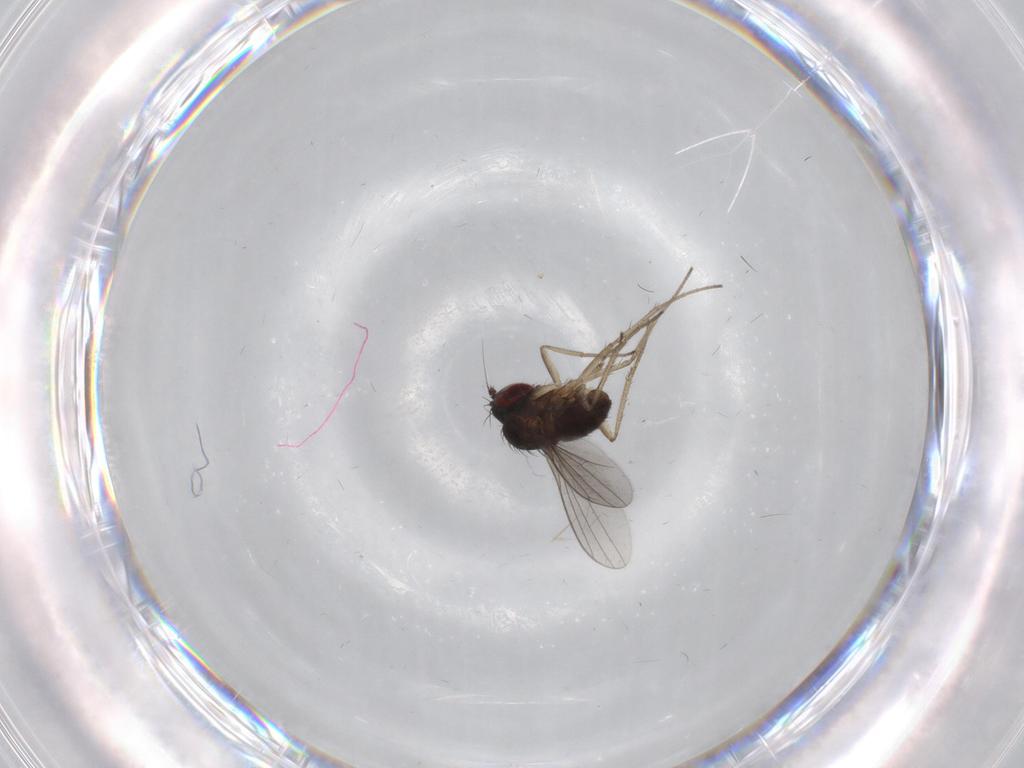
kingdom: Animalia
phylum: Arthropoda
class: Insecta
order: Diptera
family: Dolichopodidae
